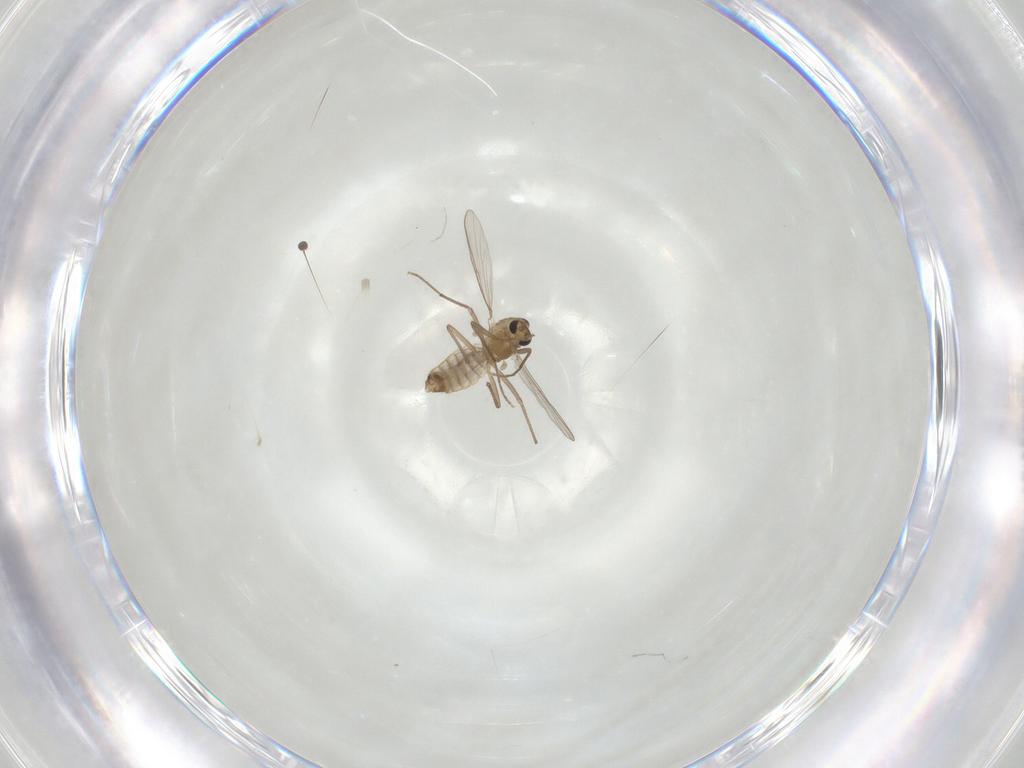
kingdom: Animalia
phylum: Arthropoda
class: Insecta
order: Diptera
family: Chironomidae
